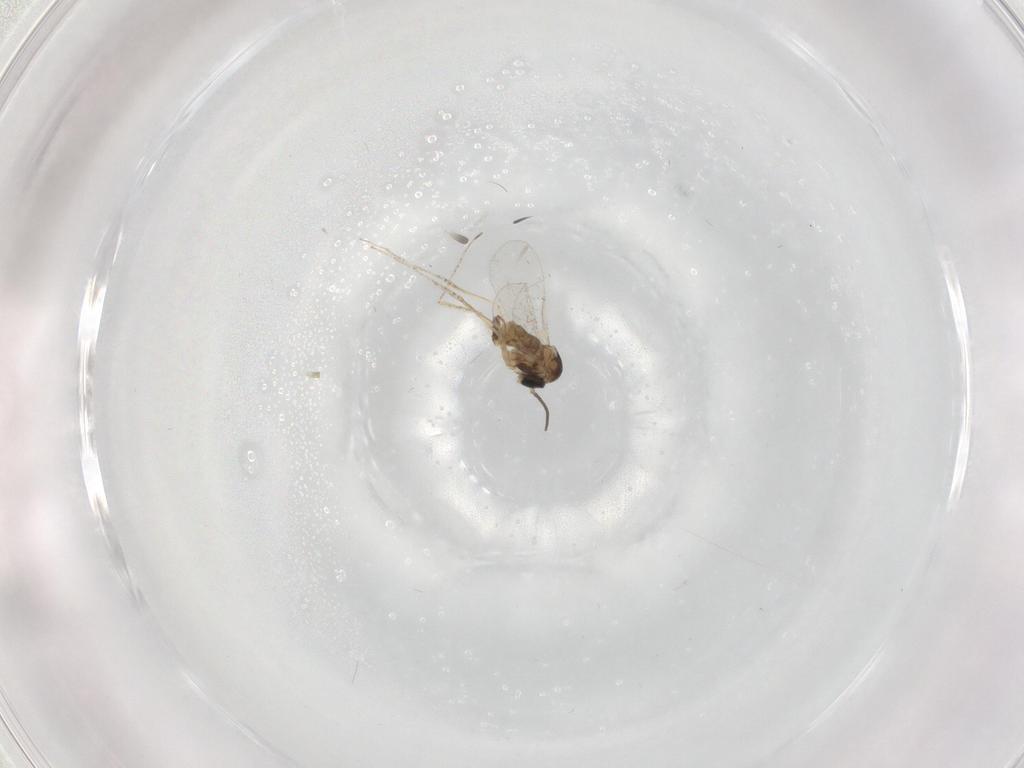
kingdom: Animalia
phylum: Arthropoda
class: Insecta
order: Diptera
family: Cecidomyiidae
